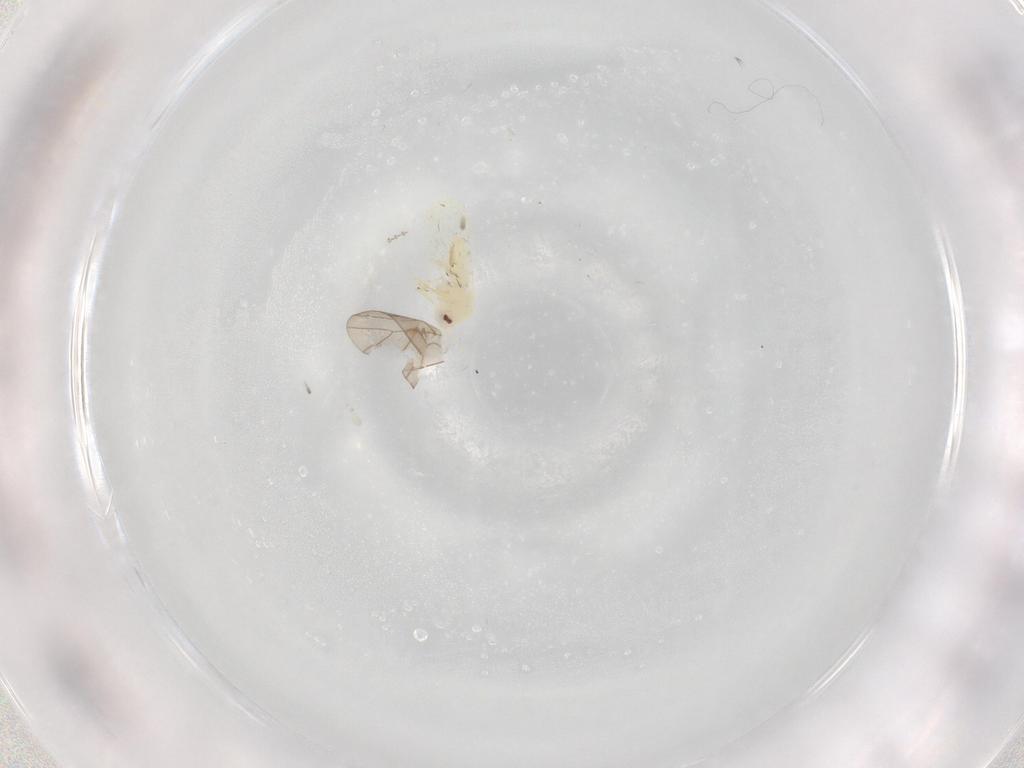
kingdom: Animalia
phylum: Arthropoda
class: Insecta
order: Hemiptera
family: Aleyrodidae
